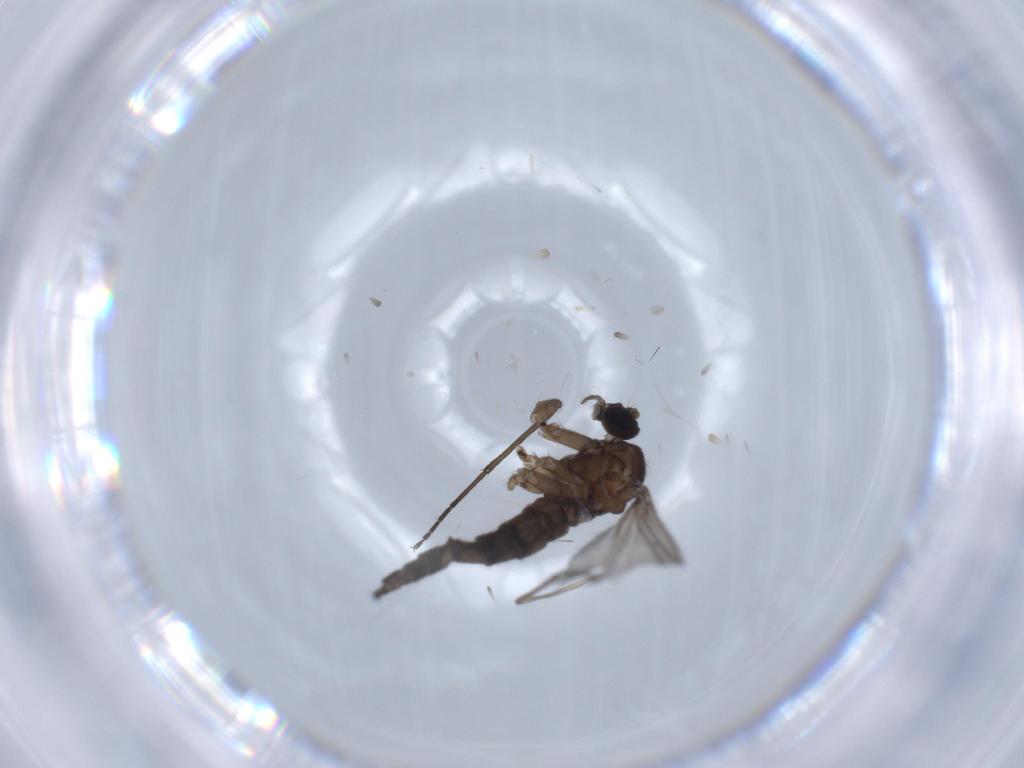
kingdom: Animalia
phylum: Arthropoda
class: Insecta
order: Diptera
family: Sciaridae
